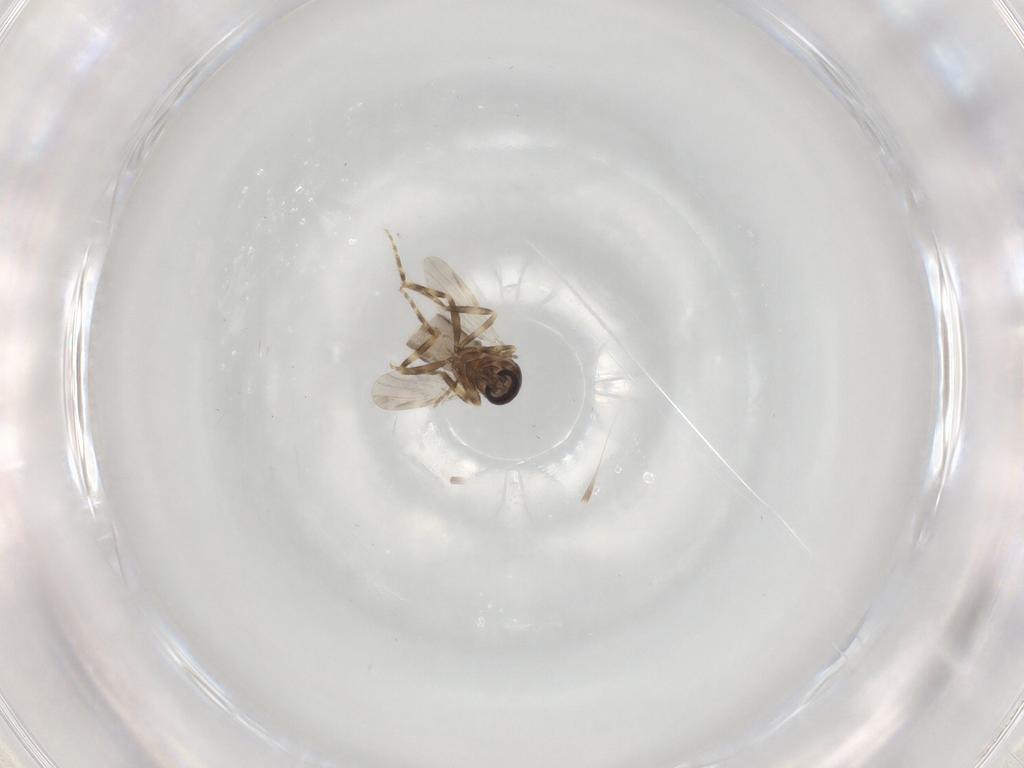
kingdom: Animalia
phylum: Arthropoda
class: Insecta
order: Diptera
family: Ceratopogonidae
